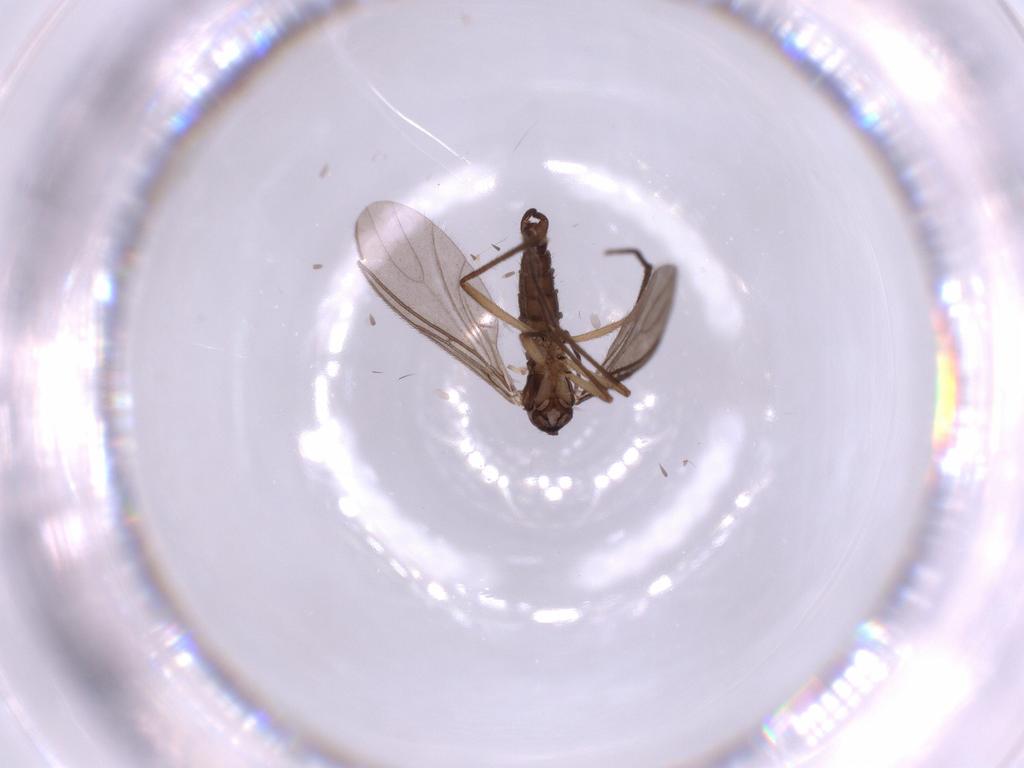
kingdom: Animalia
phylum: Arthropoda
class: Insecta
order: Diptera
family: Sciaridae
